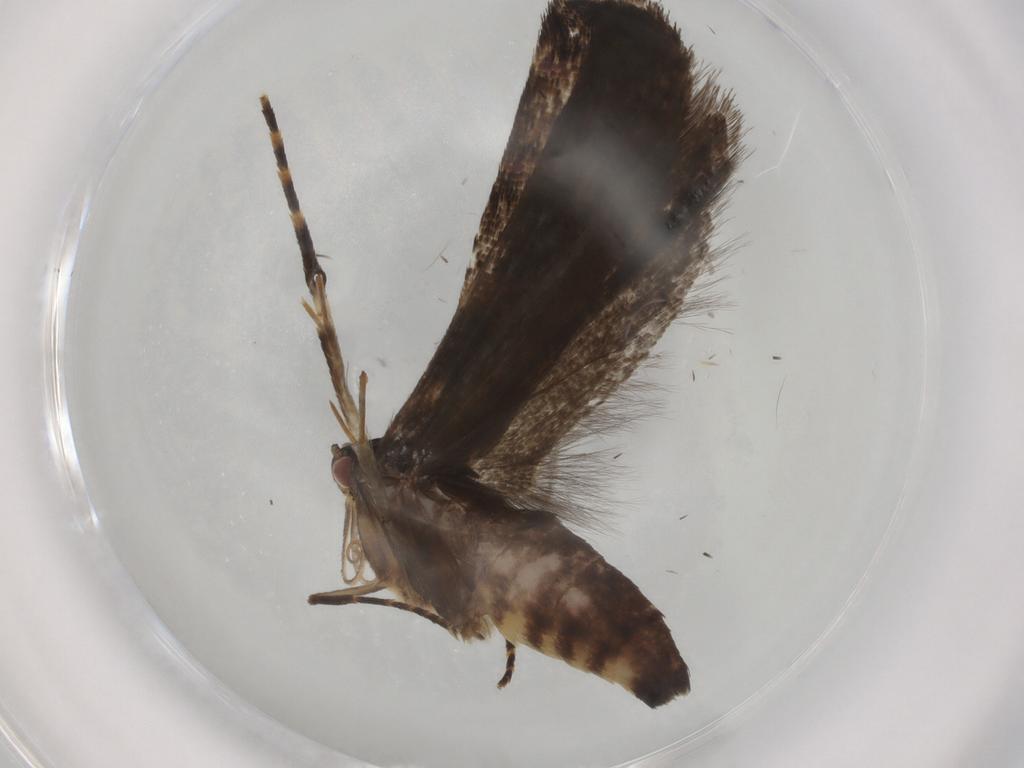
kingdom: Animalia
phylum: Arthropoda
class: Insecta
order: Lepidoptera
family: Gelechiidae
